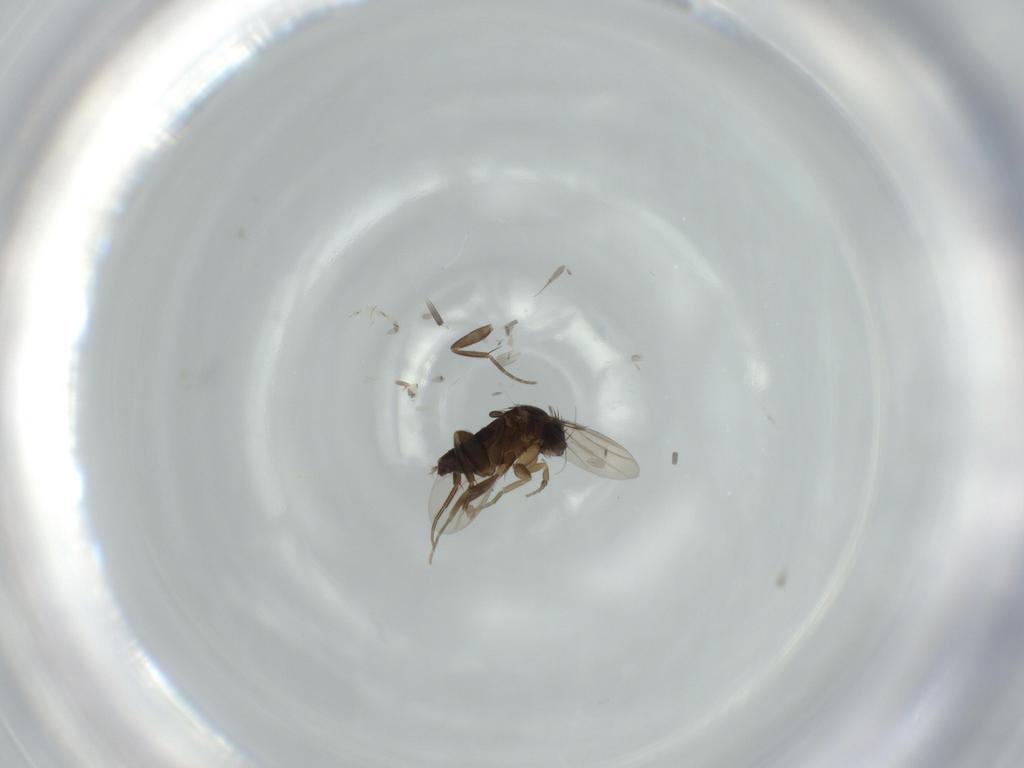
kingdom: Animalia
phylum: Arthropoda
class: Insecta
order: Diptera
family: Phoridae
